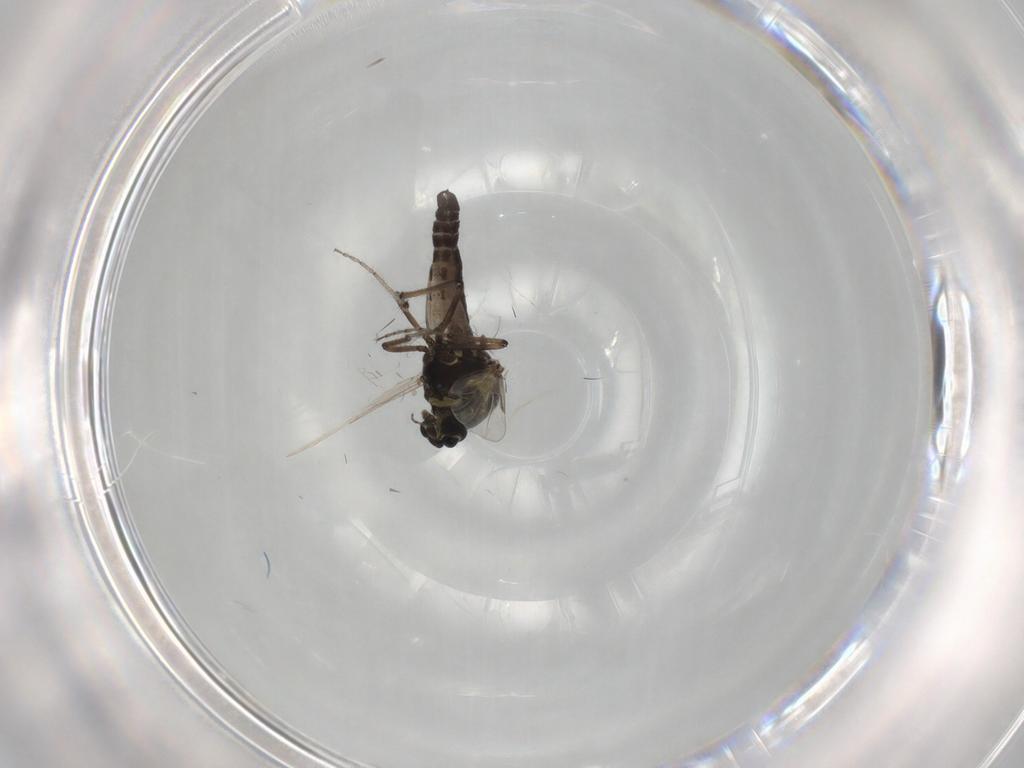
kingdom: Animalia
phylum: Arthropoda
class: Insecta
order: Diptera
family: Ceratopogonidae
